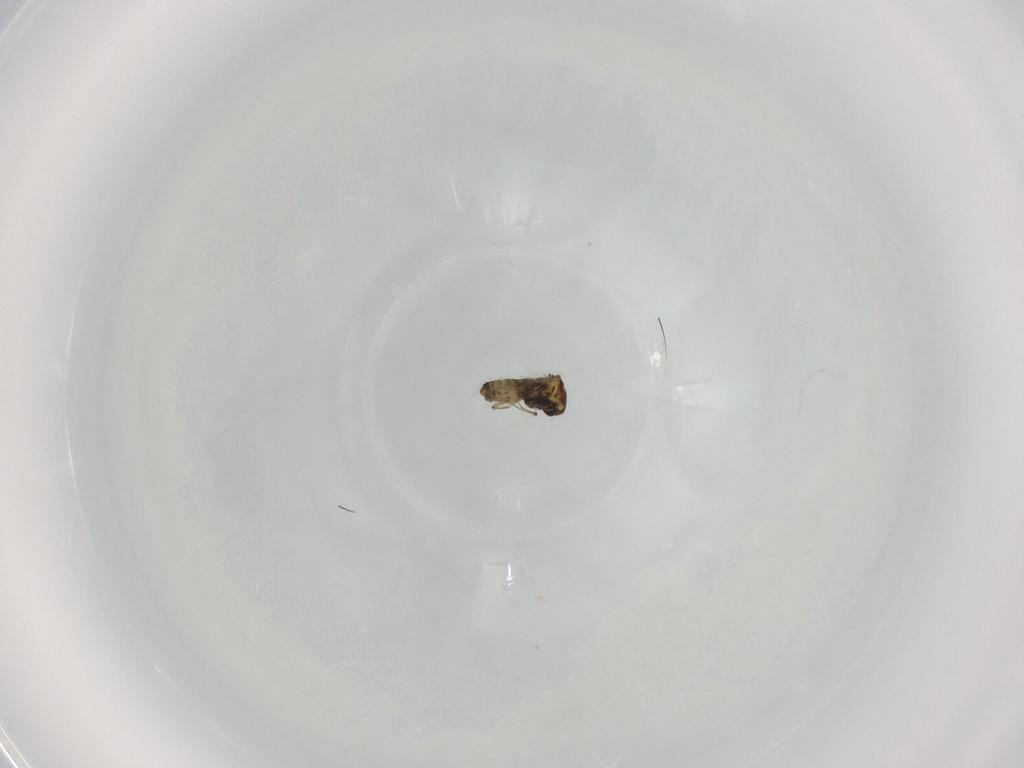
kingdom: Animalia
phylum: Arthropoda
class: Insecta
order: Diptera
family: Ceratopogonidae
